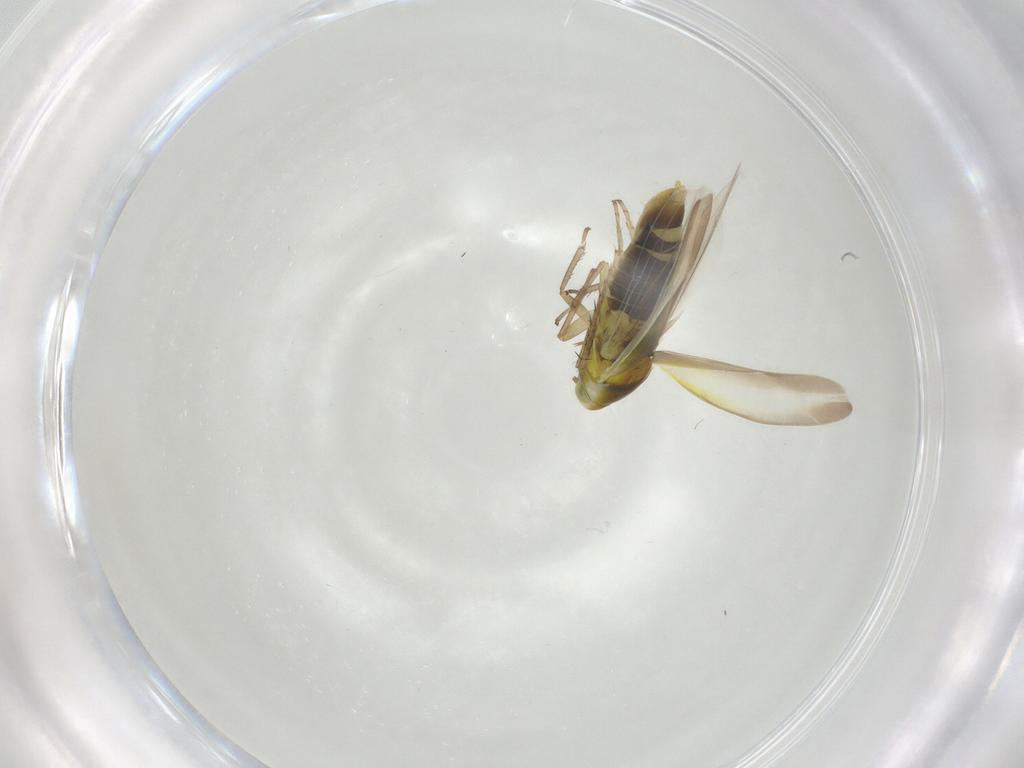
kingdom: Animalia
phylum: Arthropoda
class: Insecta
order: Hemiptera
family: Cicadellidae
